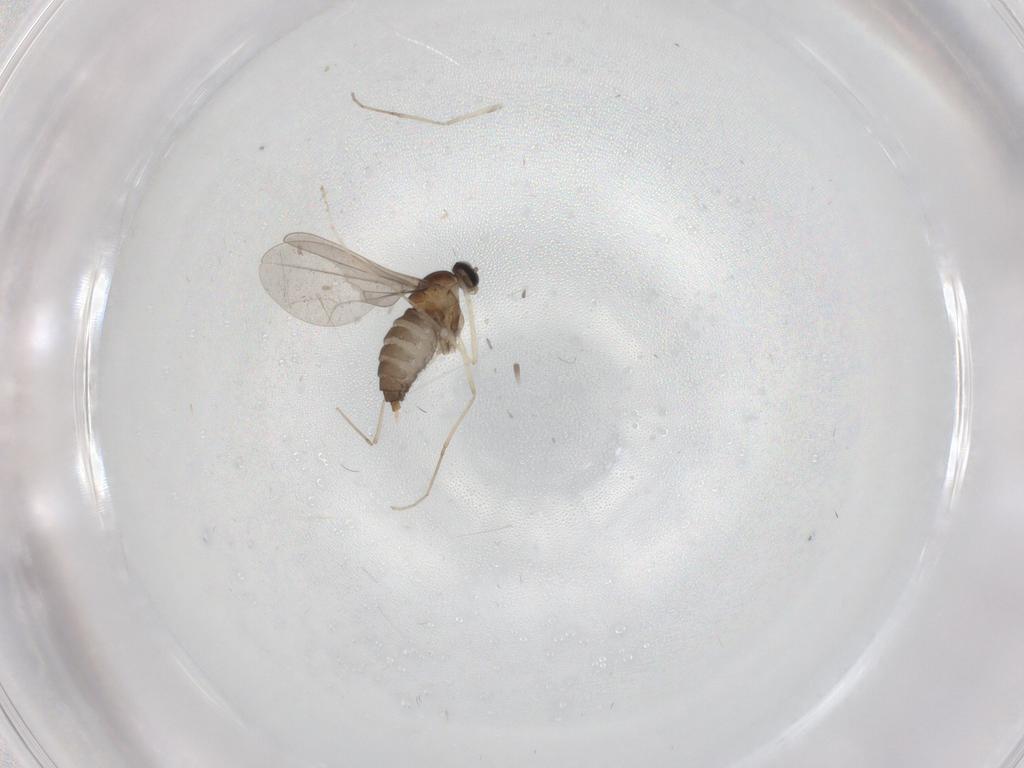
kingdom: Animalia
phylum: Arthropoda
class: Insecta
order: Diptera
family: Cecidomyiidae
